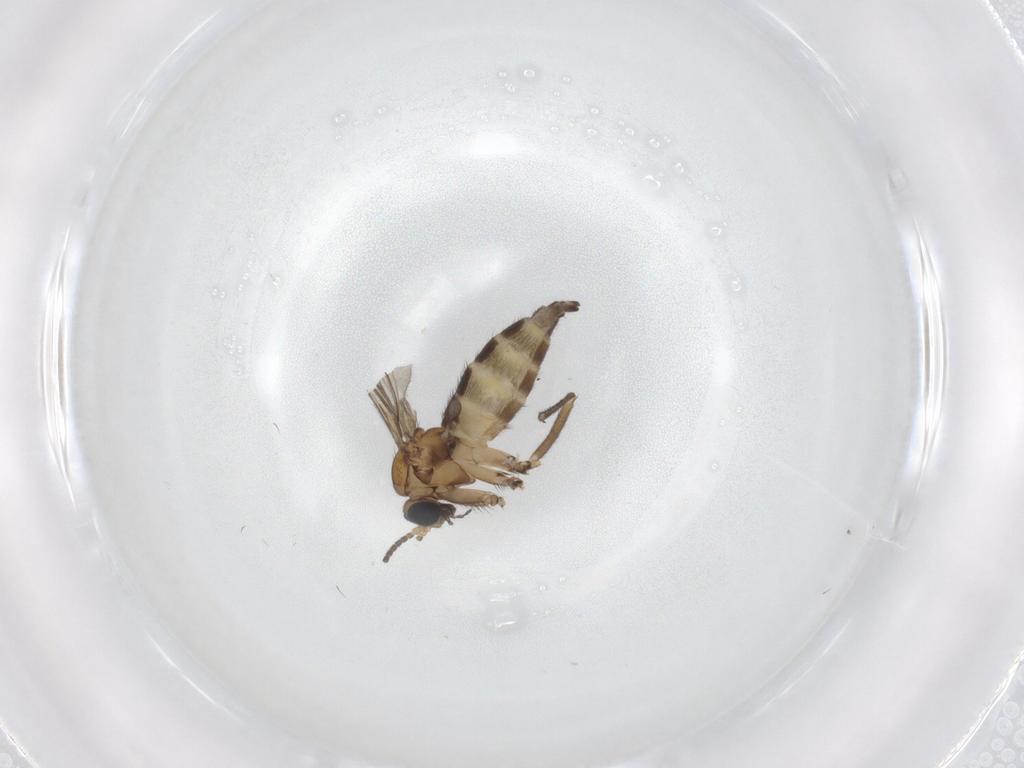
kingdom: Animalia
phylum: Arthropoda
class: Insecta
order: Diptera
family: Sciaridae
